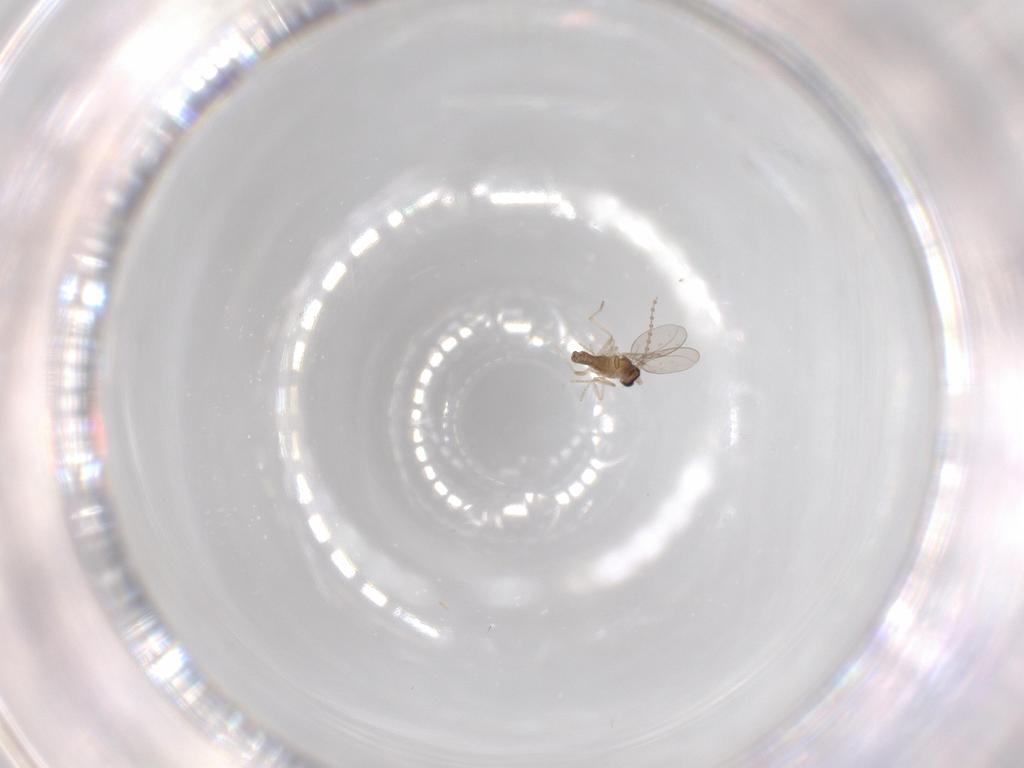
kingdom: Animalia
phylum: Arthropoda
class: Insecta
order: Diptera
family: Cecidomyiidae
